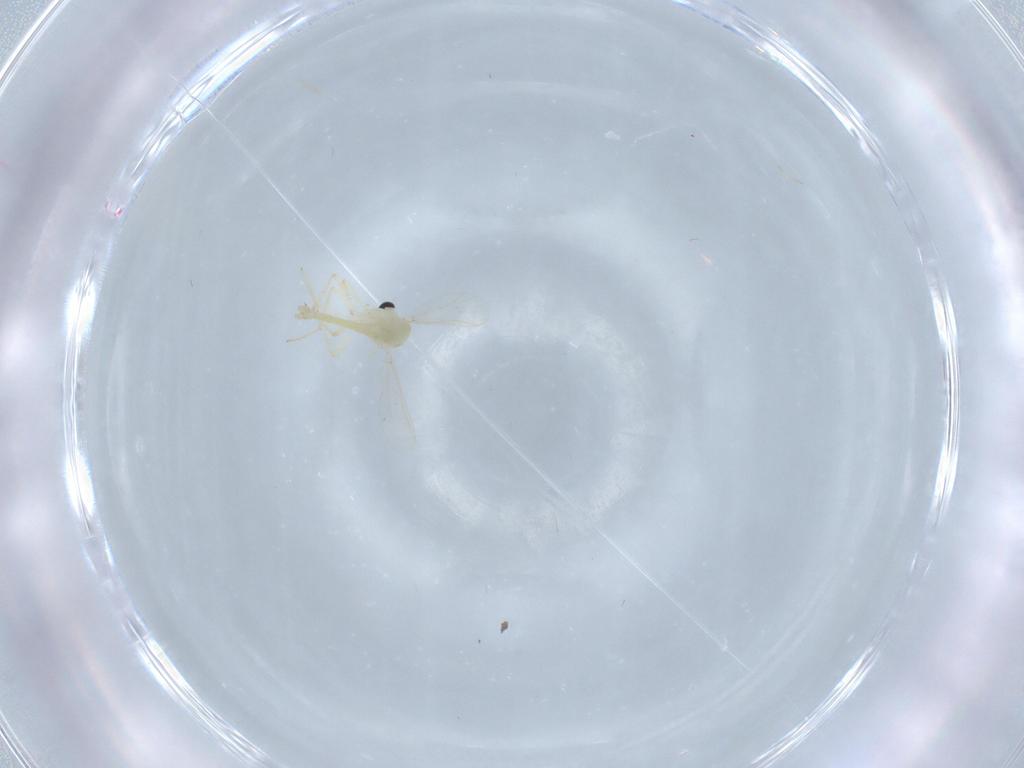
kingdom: Animalia
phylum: Arthropoda
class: Insecta
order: Diptera
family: Chironomidae
